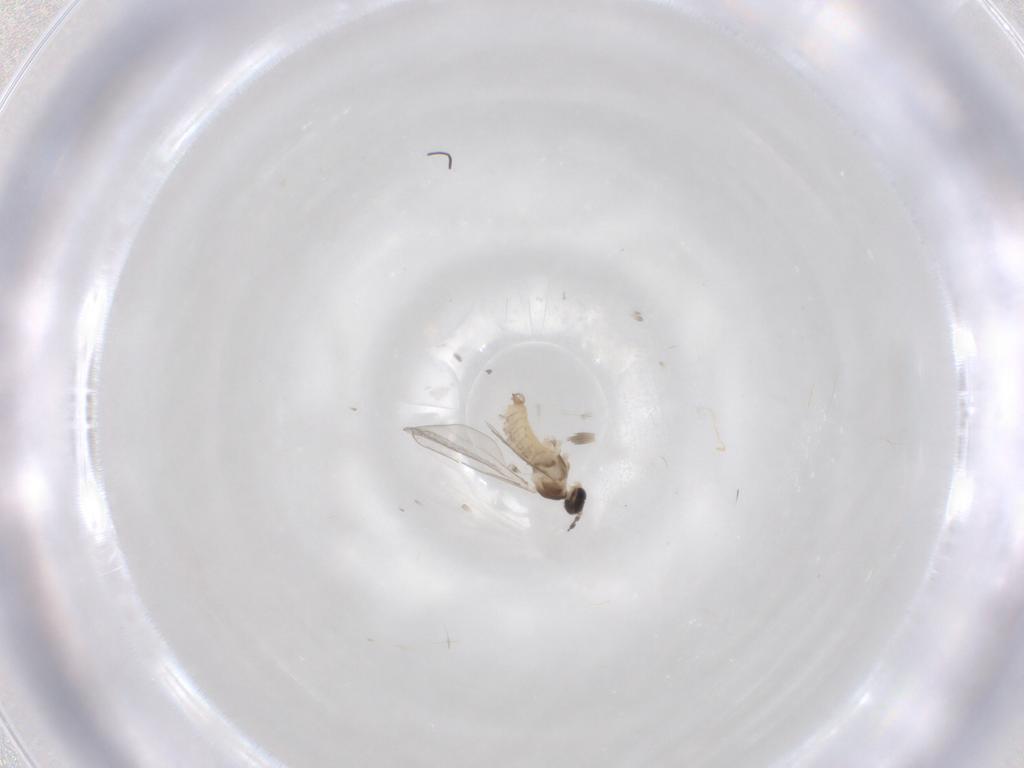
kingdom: Animalia
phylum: Arthropoda
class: Insecta
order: Diptera
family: Cecidomyiidae
